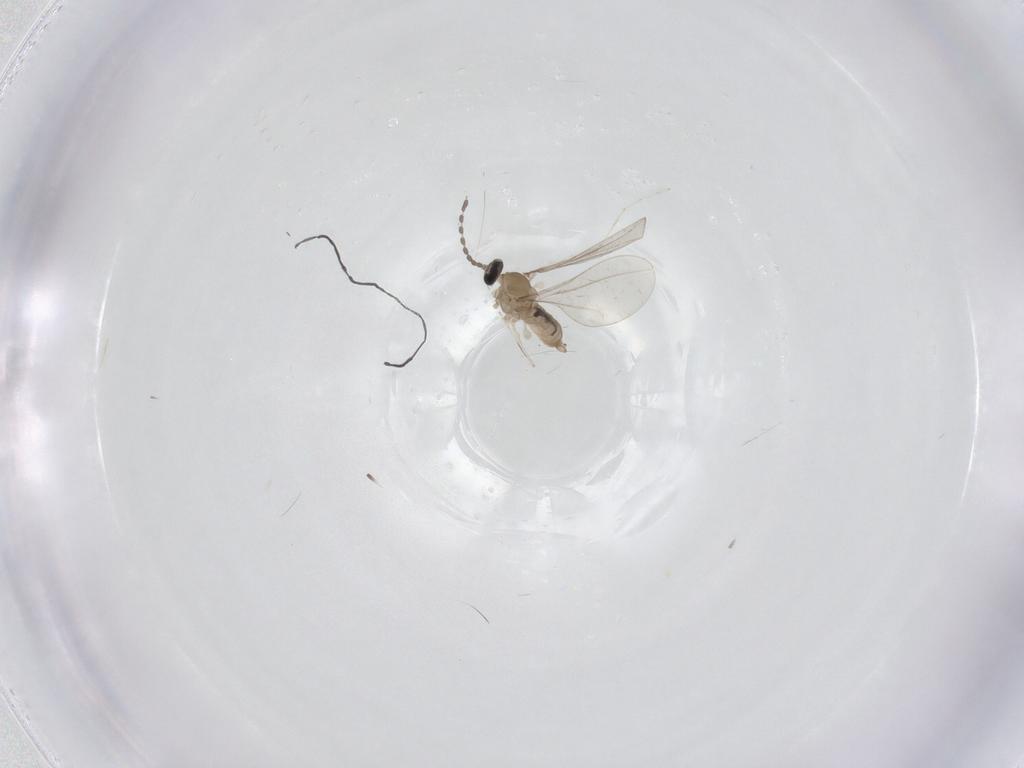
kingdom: Animalia
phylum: Arthropoda
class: Insecta
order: Diptera
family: Cecidomyiidae
